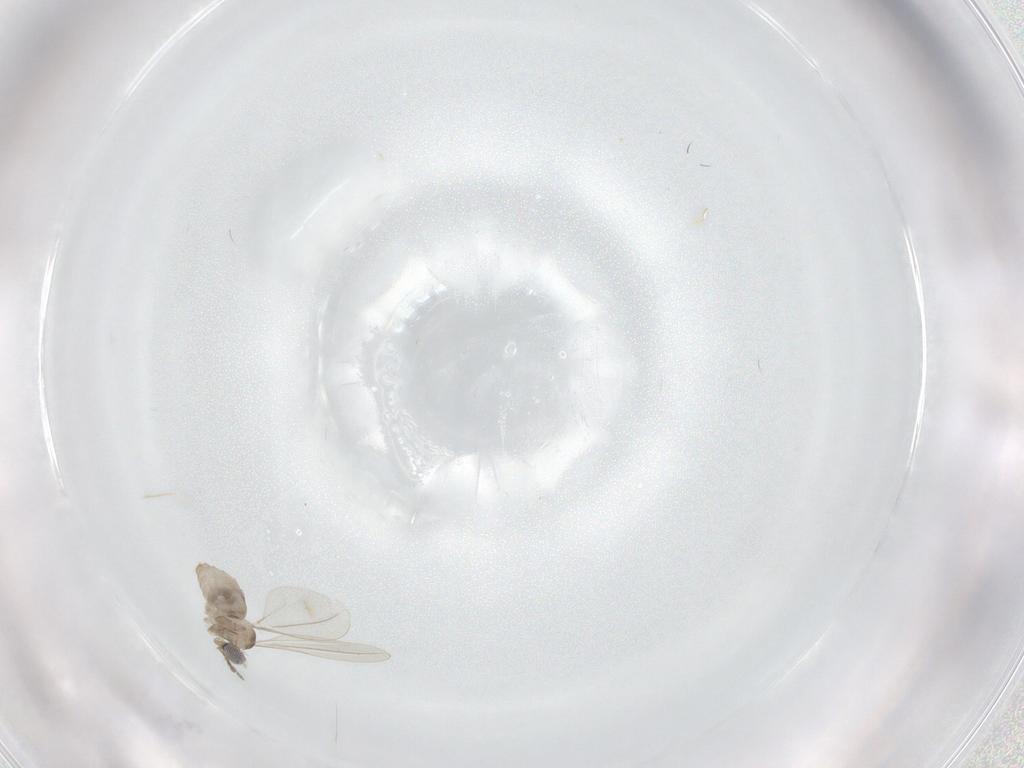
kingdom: Animalia
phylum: Arthropoda
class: Insecta
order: Diptera
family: Cecidomyiidae
